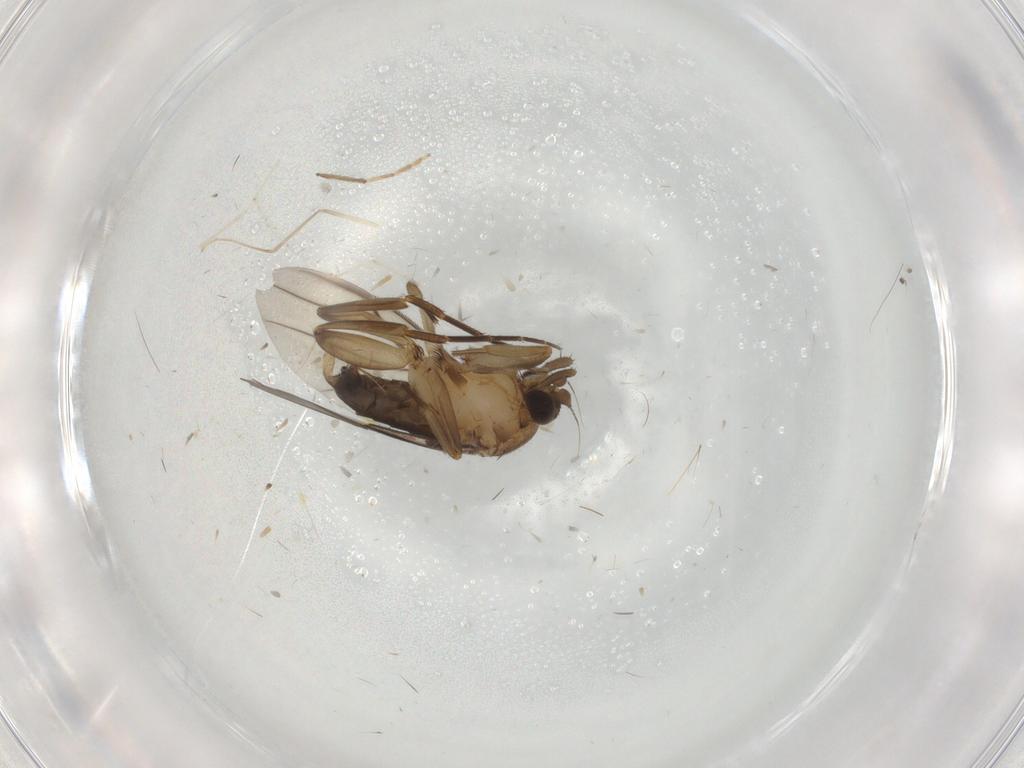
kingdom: Animalia
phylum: Arthropoda
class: Insecta
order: Diptera
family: Phoridae
